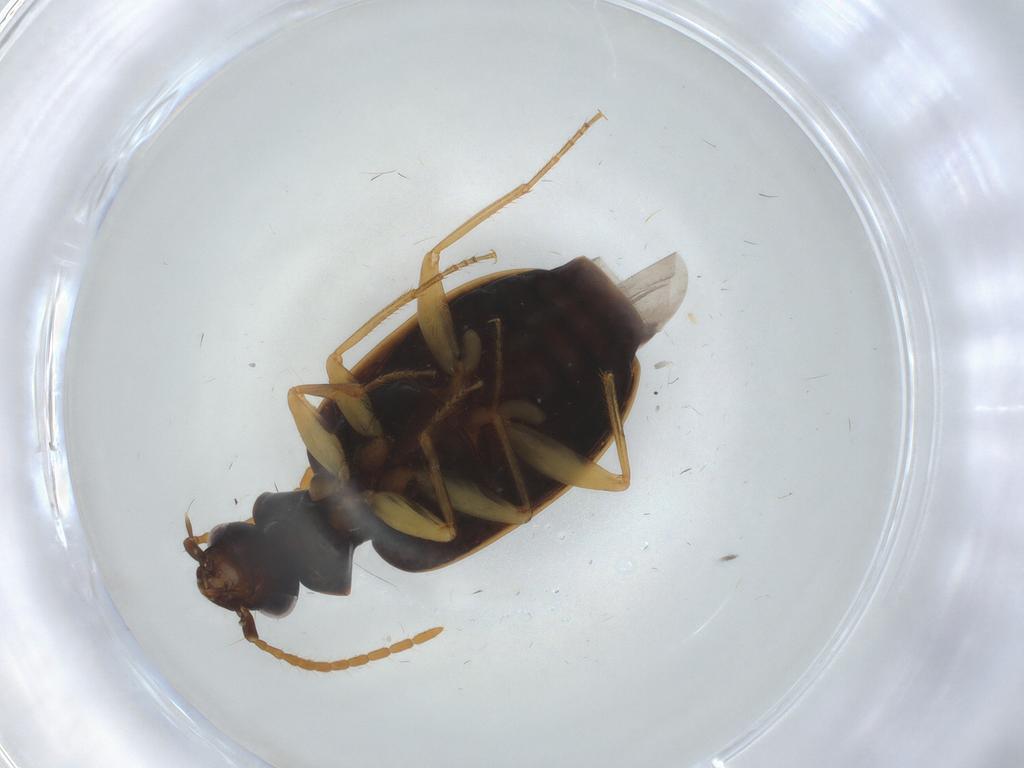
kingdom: Animalia
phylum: Arthropoda
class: Insecta
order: Coleoptera
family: Carabidae
